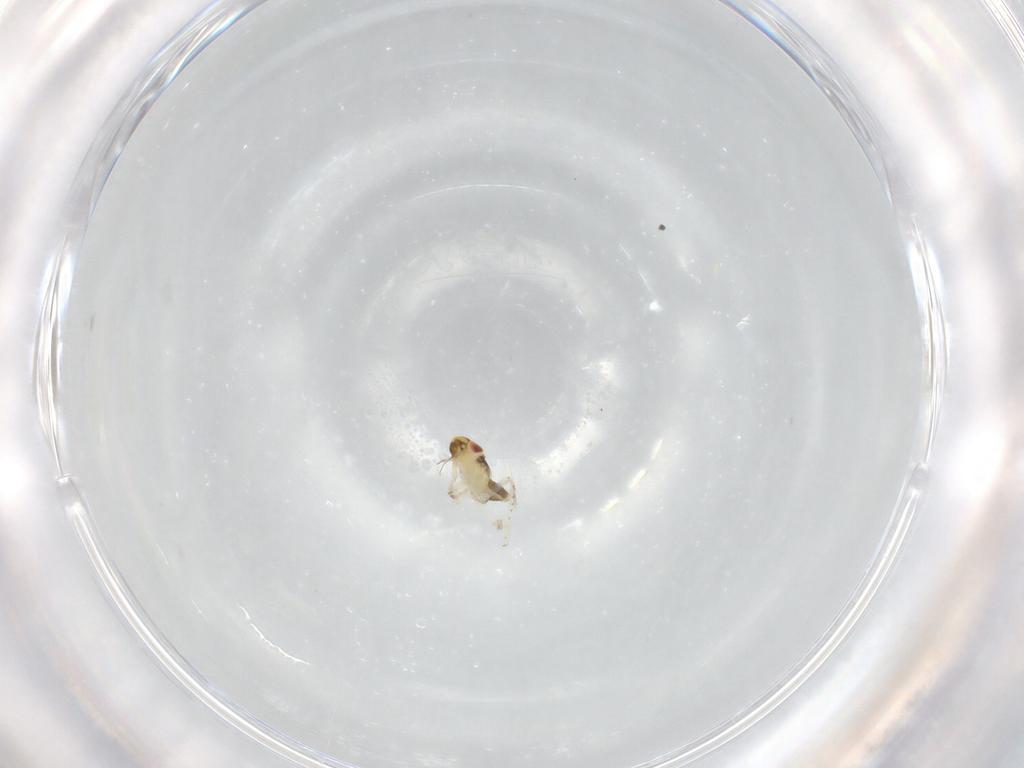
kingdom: Animalia
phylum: Arthropoda
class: Insecta
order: Hemiptera
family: Cicadellidae
